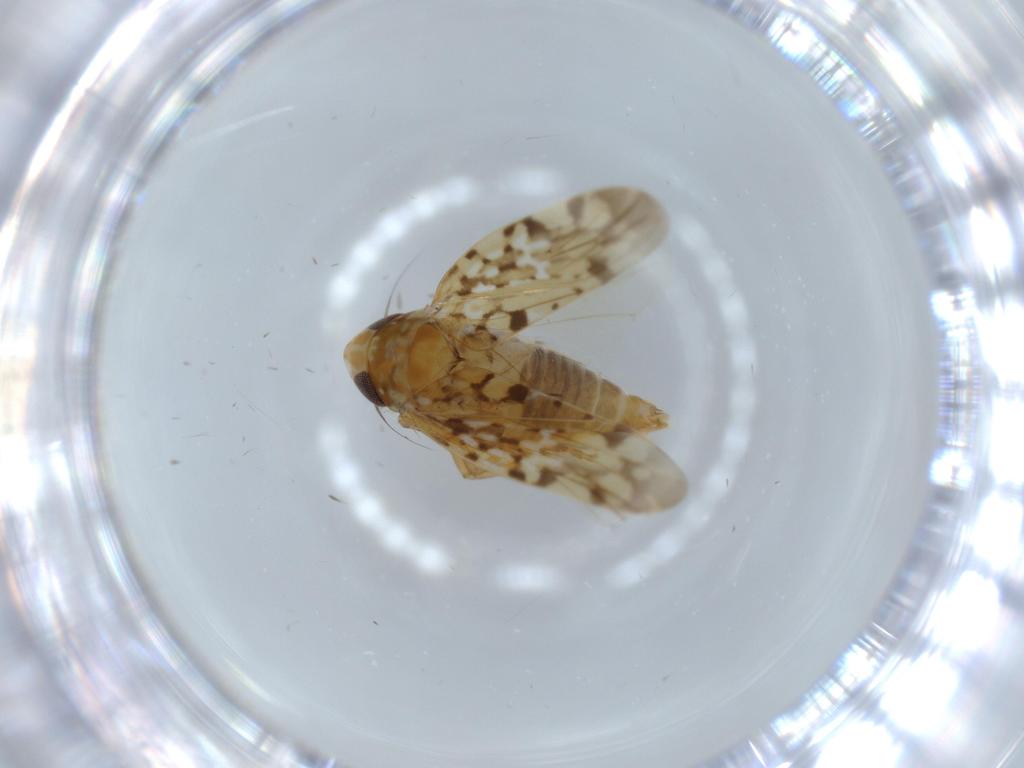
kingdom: Animalia
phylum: Arthropoda
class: Insecta
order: Hemiptera
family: Cicadellidae
